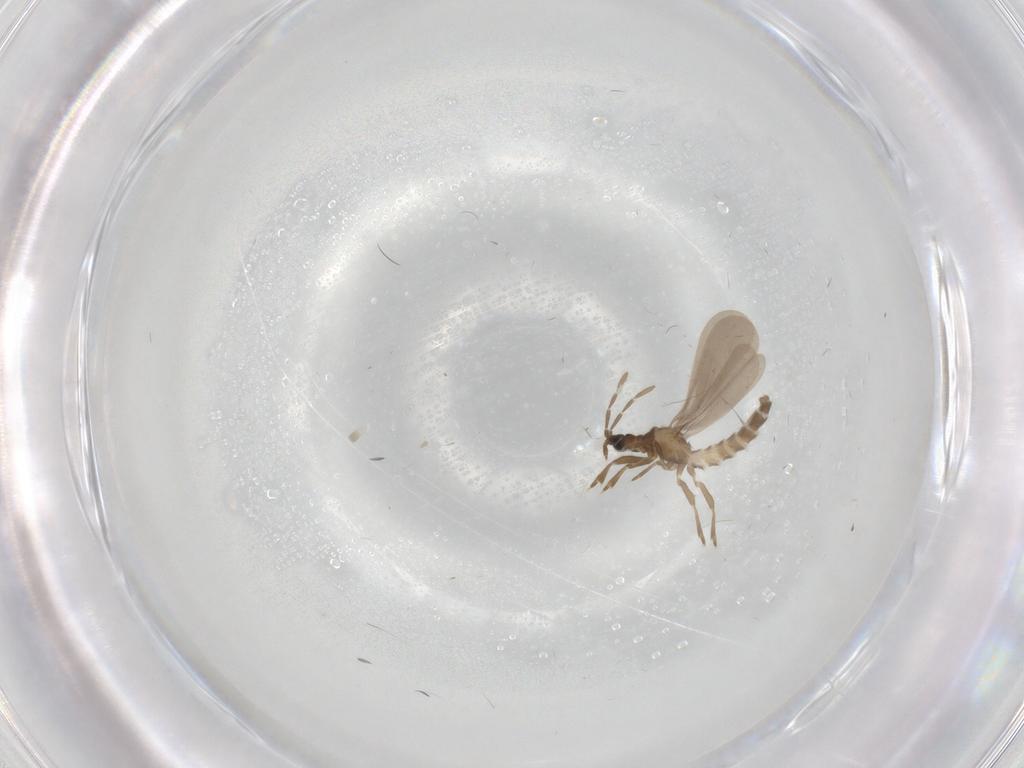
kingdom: Animalia
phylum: Arthropoda
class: Insecta
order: Hemiptera
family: Enicocephalidae
